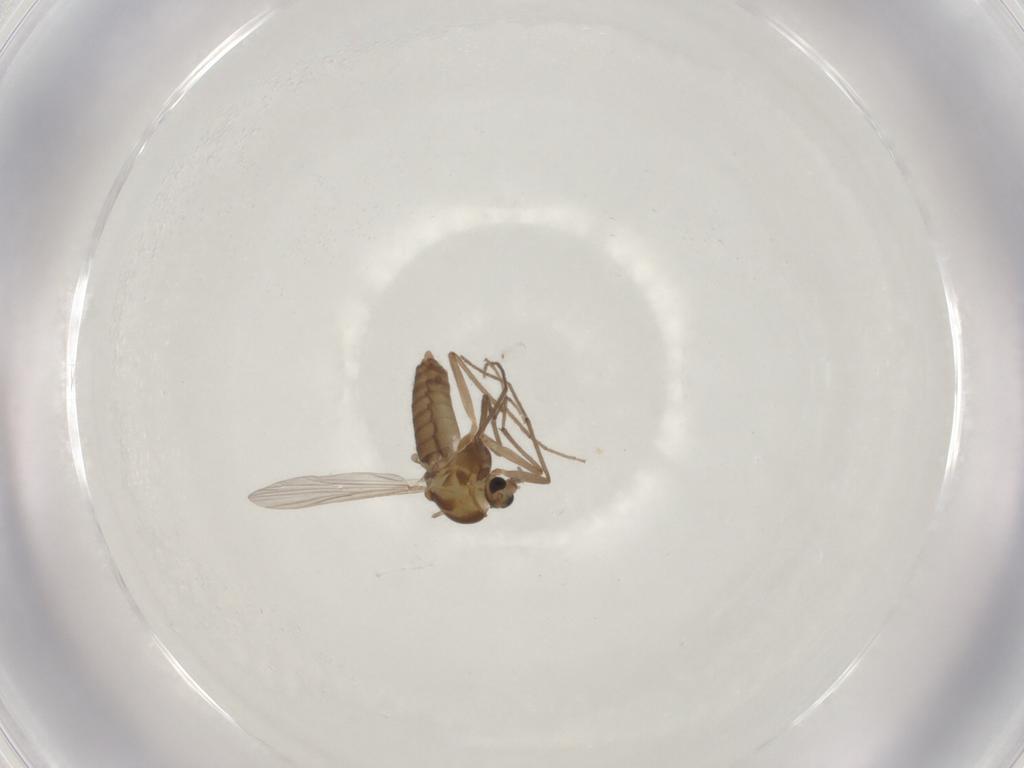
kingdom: Animalia
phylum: Arthropoda
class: Insecta
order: Diptera
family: Chironomidae
